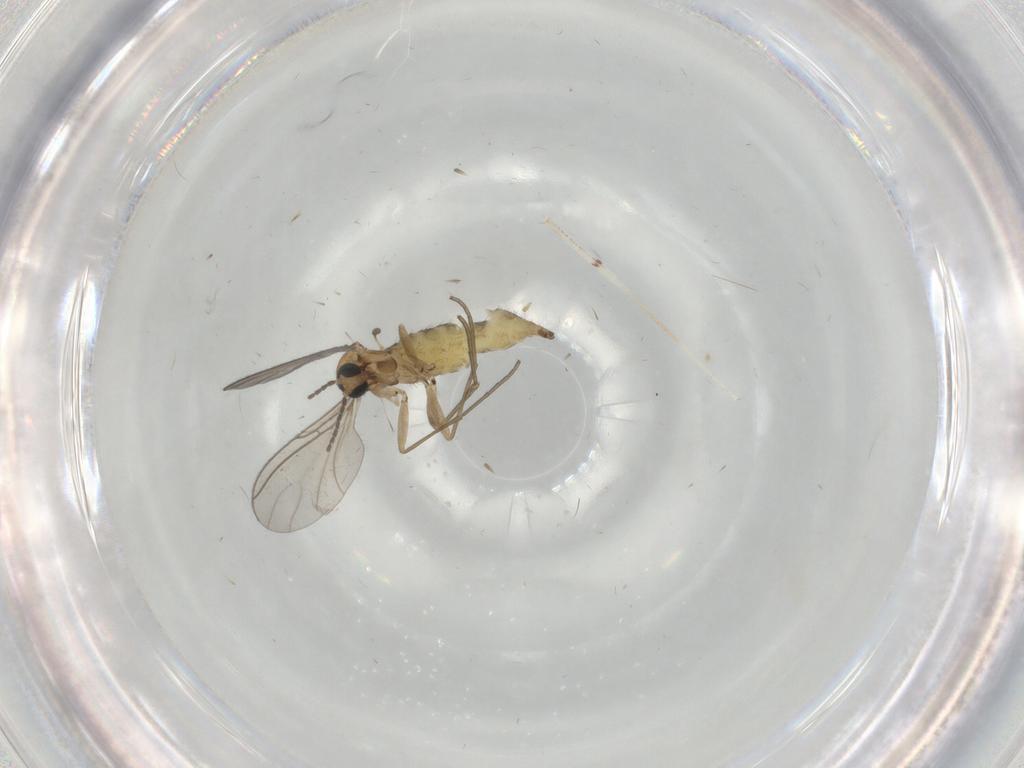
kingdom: Animalia
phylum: Arthropoda
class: Insecta
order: Diptera
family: Sciaridae
